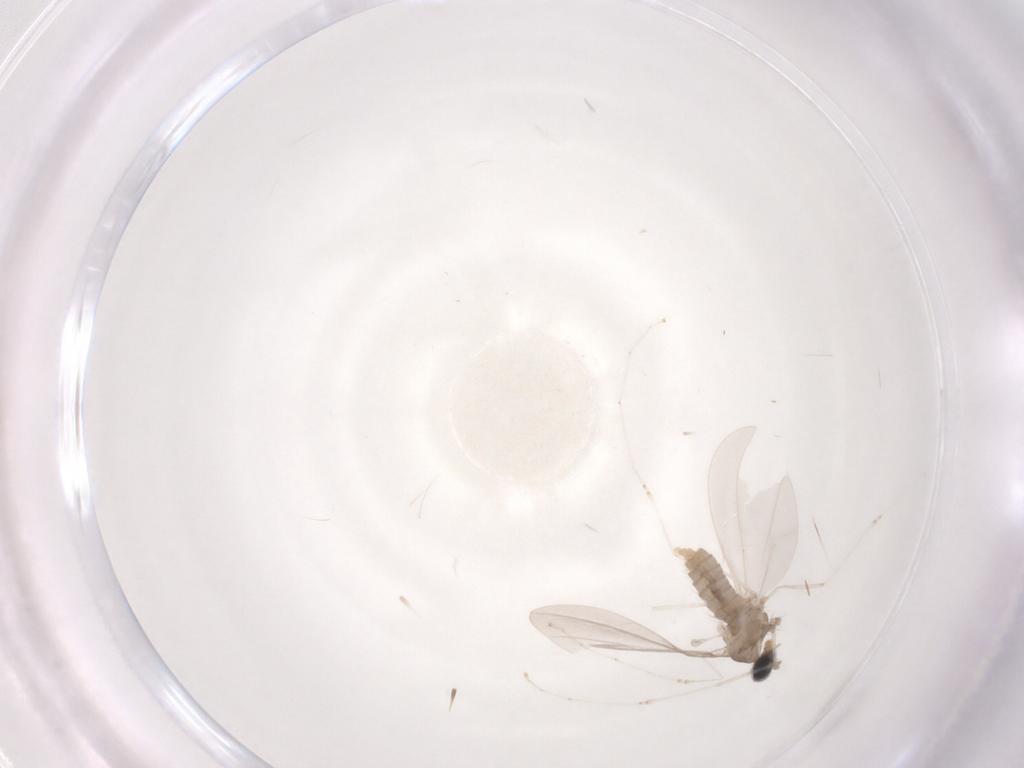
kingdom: Animalia
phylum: Arthropoda
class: Insecta
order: Diptera
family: Cecidomyiidae
